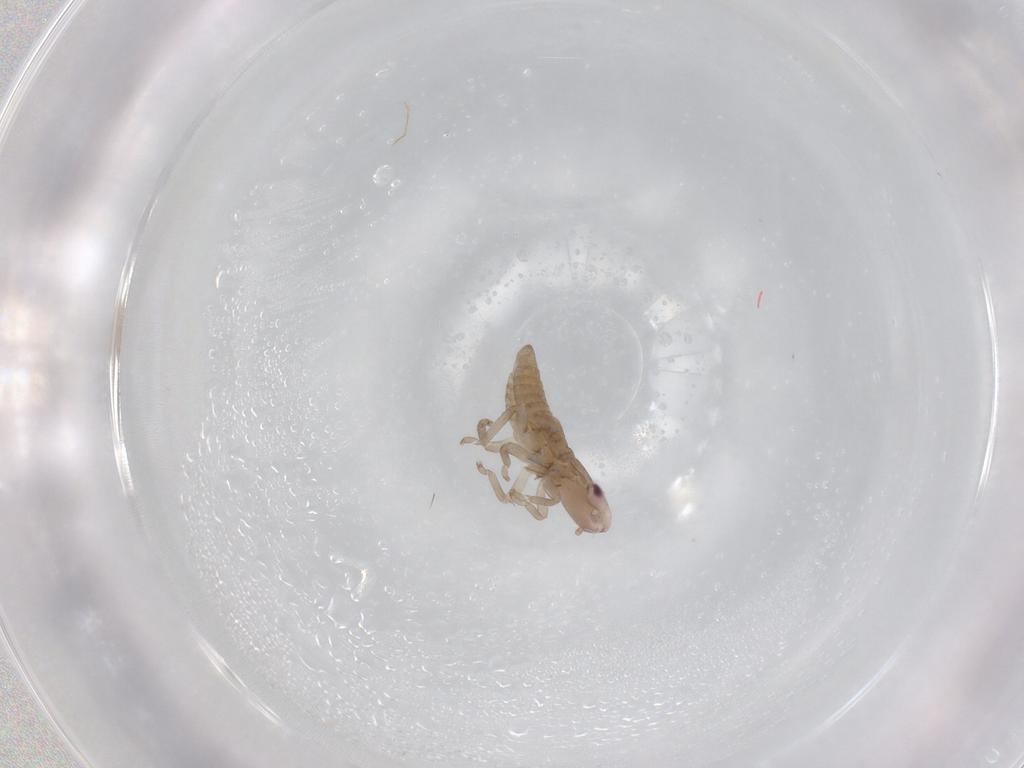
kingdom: Animalia
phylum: Arthropoda
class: Insecta
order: Hemiptera
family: Cicadellidae
